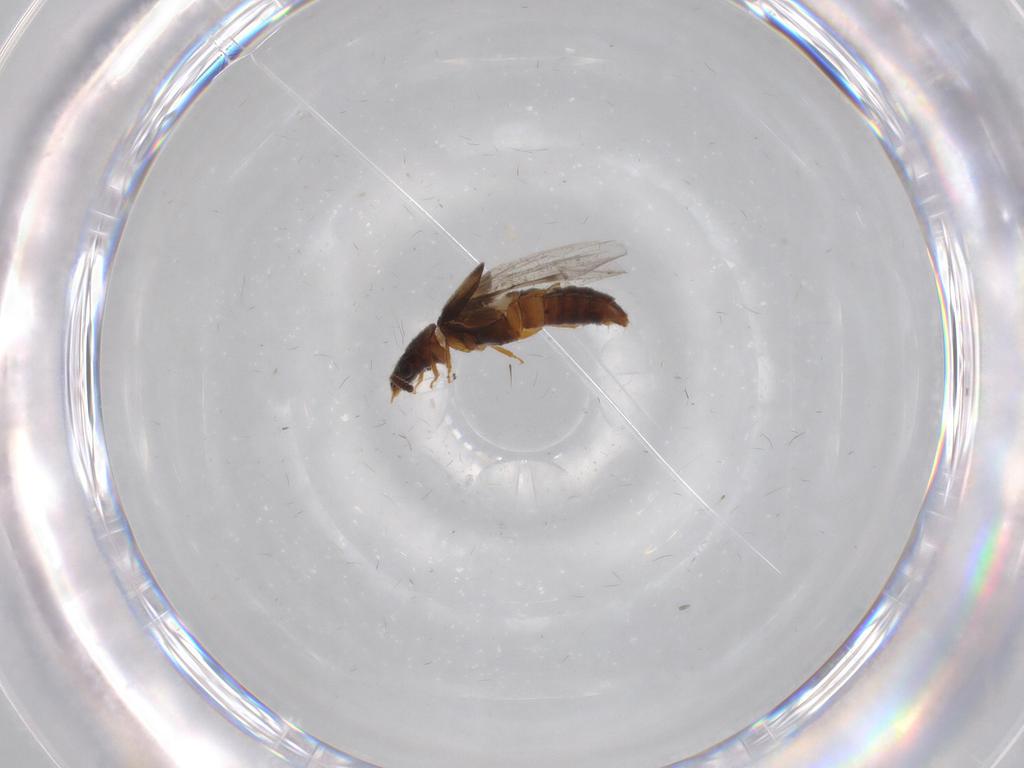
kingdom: Animalia
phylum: Arthropoda
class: Insecta
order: Coleoptera
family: Staphylinidae
